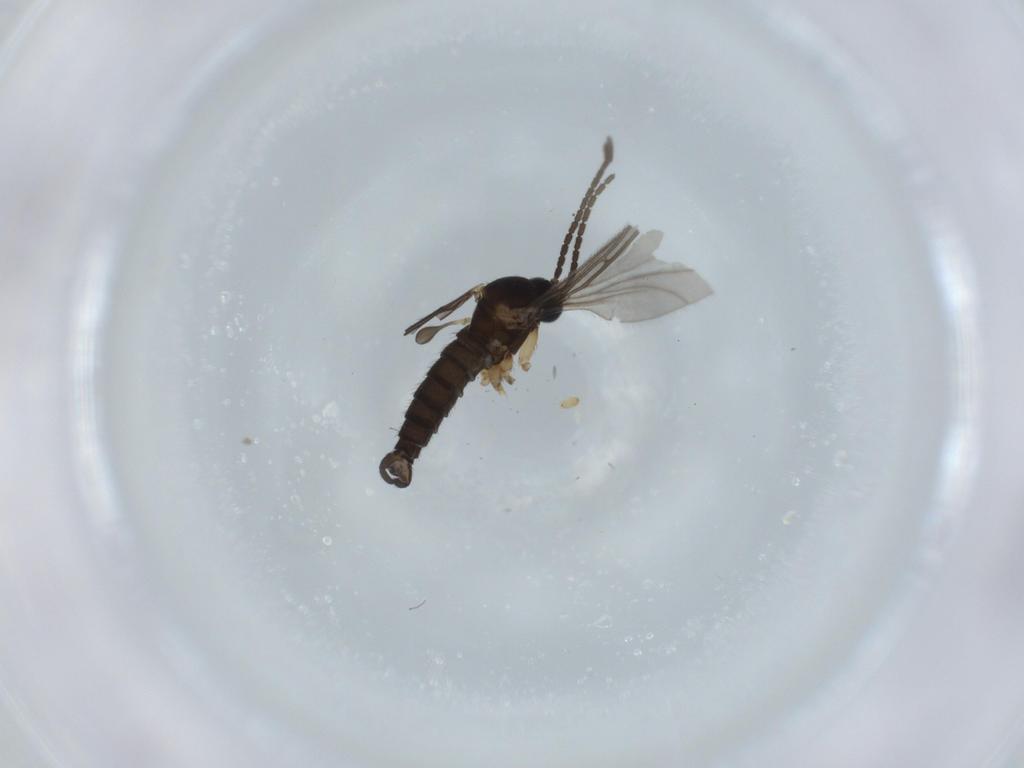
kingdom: Animalia
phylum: Arthropoda
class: Insecta
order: Diptera
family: Sciaridae
